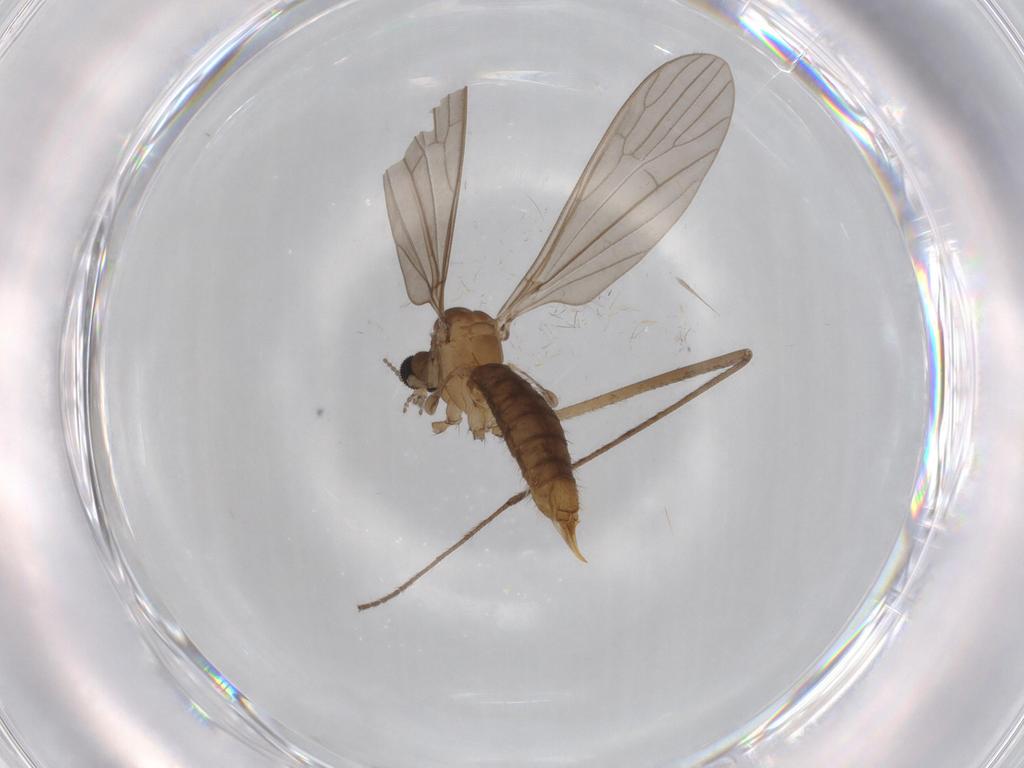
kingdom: Animalia
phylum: Arthropoda
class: Insecta
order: Diptera
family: Limoniidae
